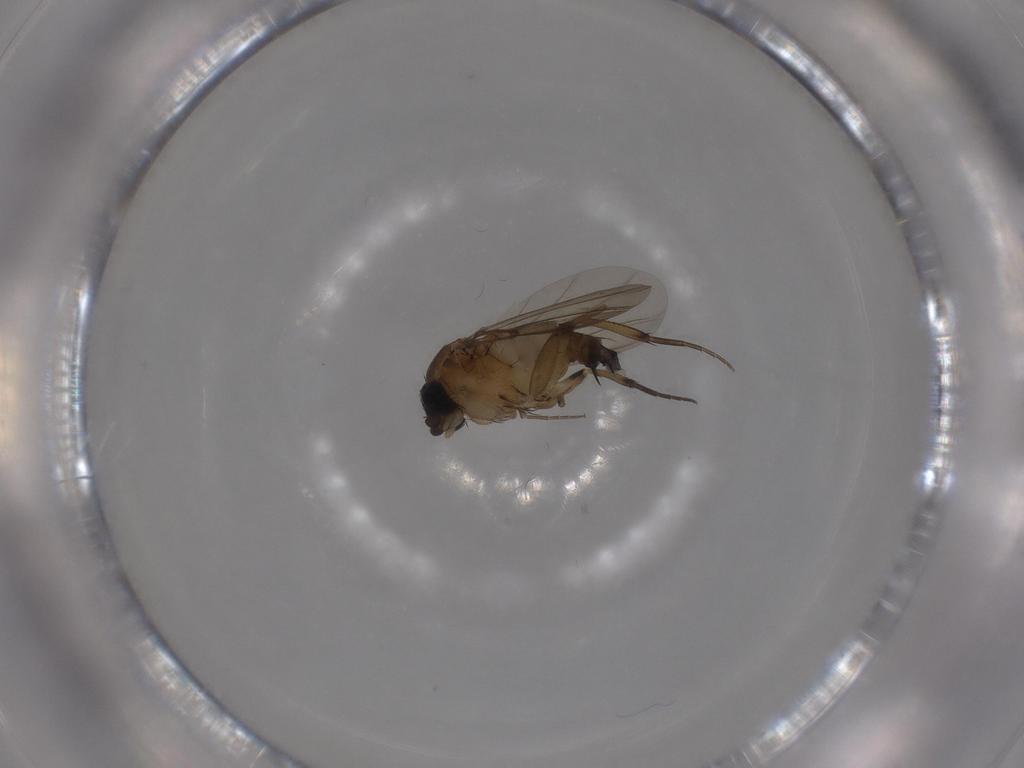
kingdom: Animalia
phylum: Arthropoda
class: Insecta
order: Diptera
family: Phoridae
